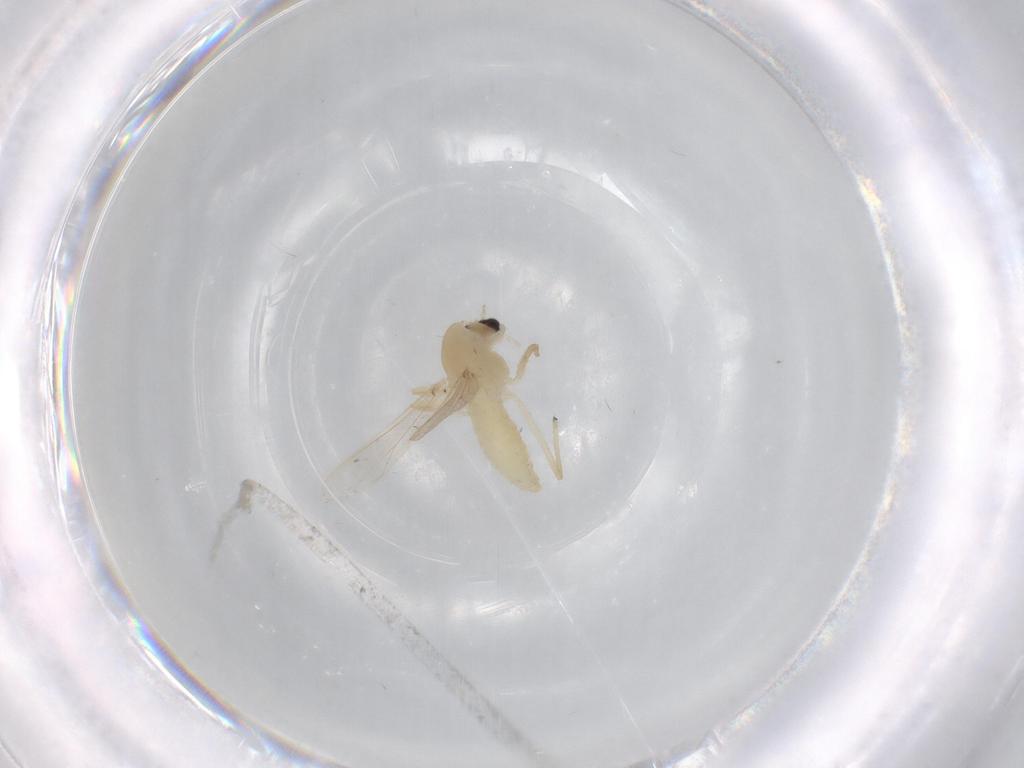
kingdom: Animalia
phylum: Arthropoda
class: Insecta
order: Diptera
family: Chironomidae
